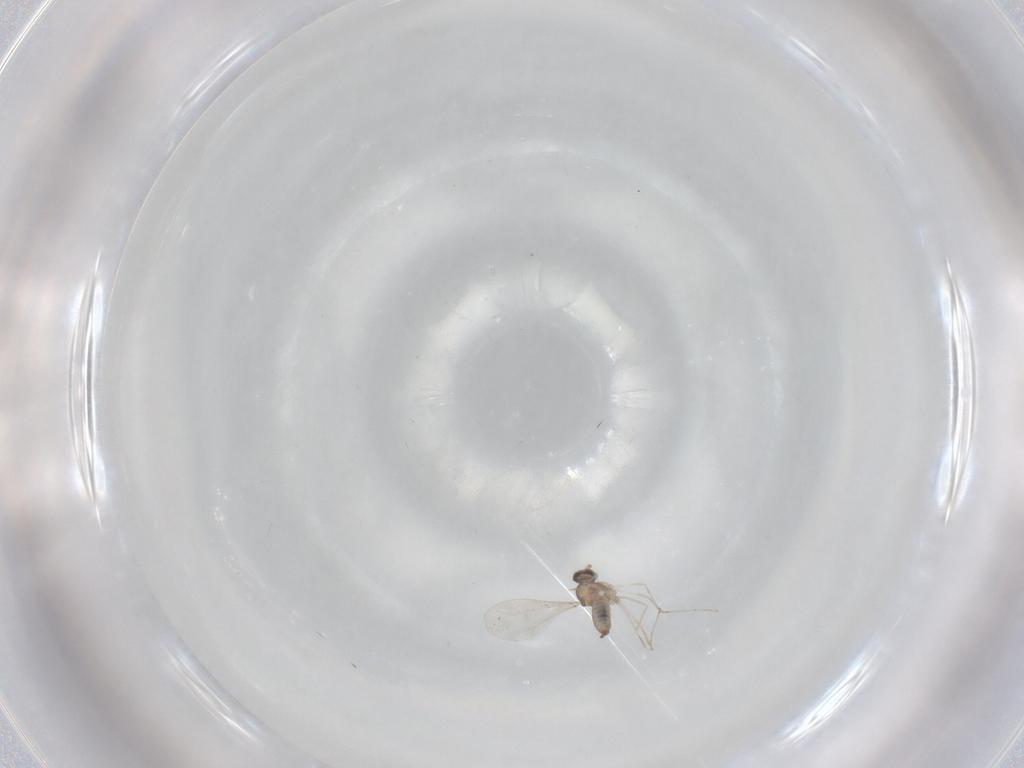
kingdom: Animalia
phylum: Arthropoda
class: Insecta
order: Diptera
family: Cecidomyiidae
